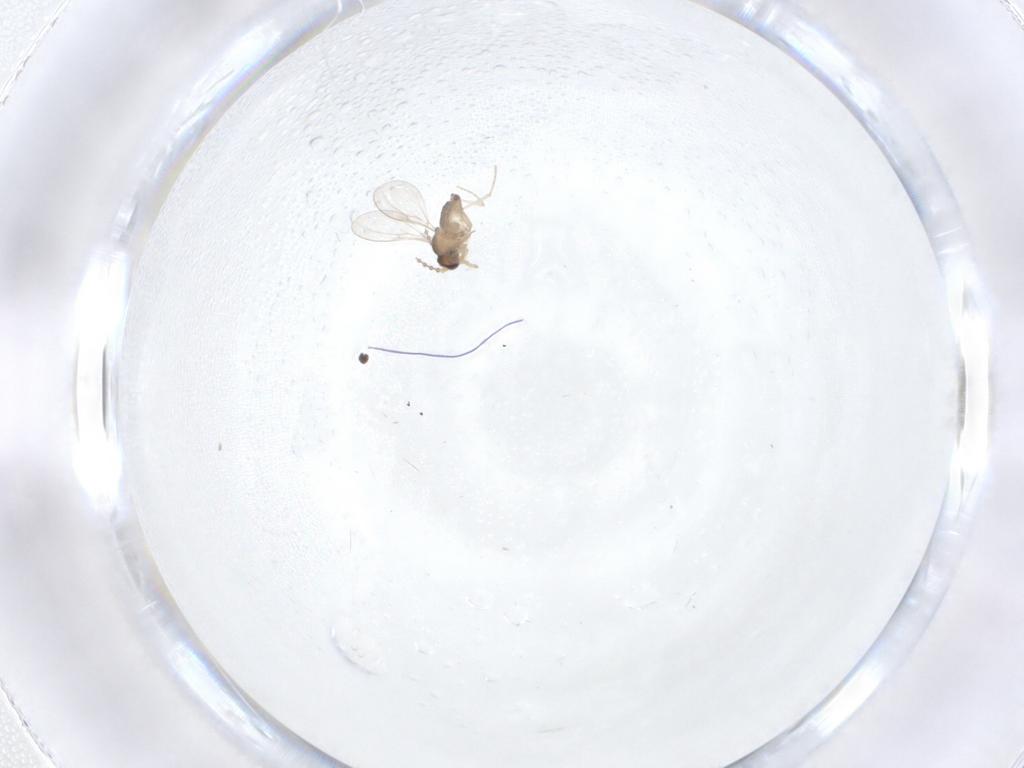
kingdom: Animalia
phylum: Arthropoda
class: Insecta
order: Diptera
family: Cecidomyiidae
